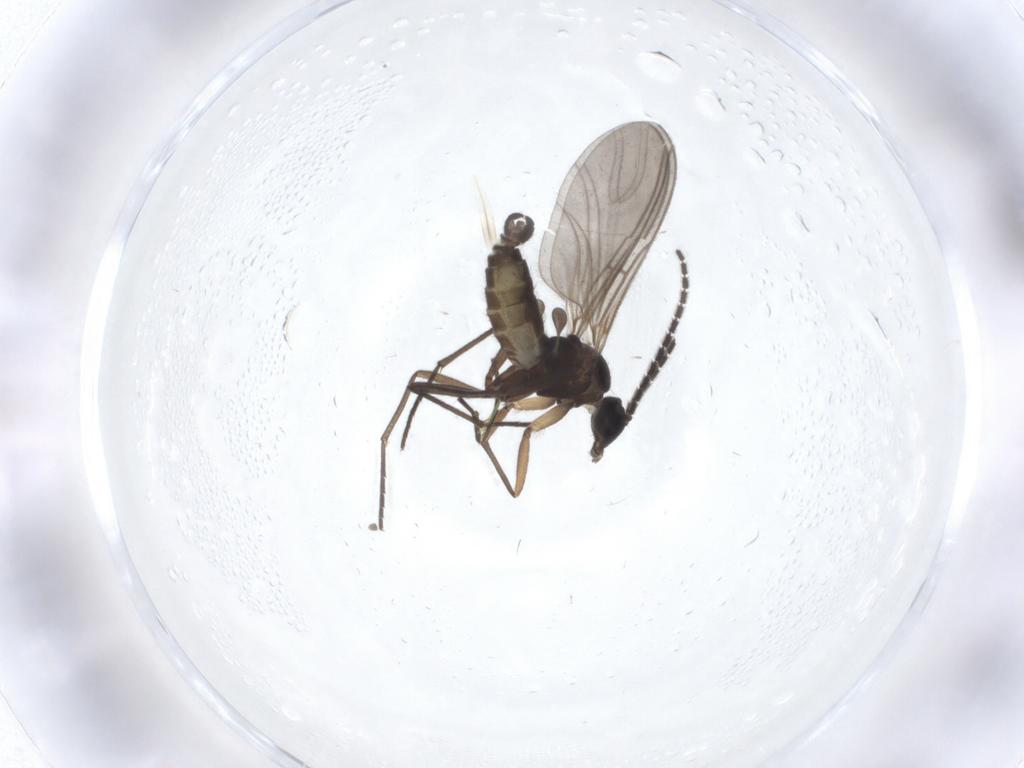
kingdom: Animalia
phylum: Arthropoda
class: Insecta
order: Diptera
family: Sciaridae
